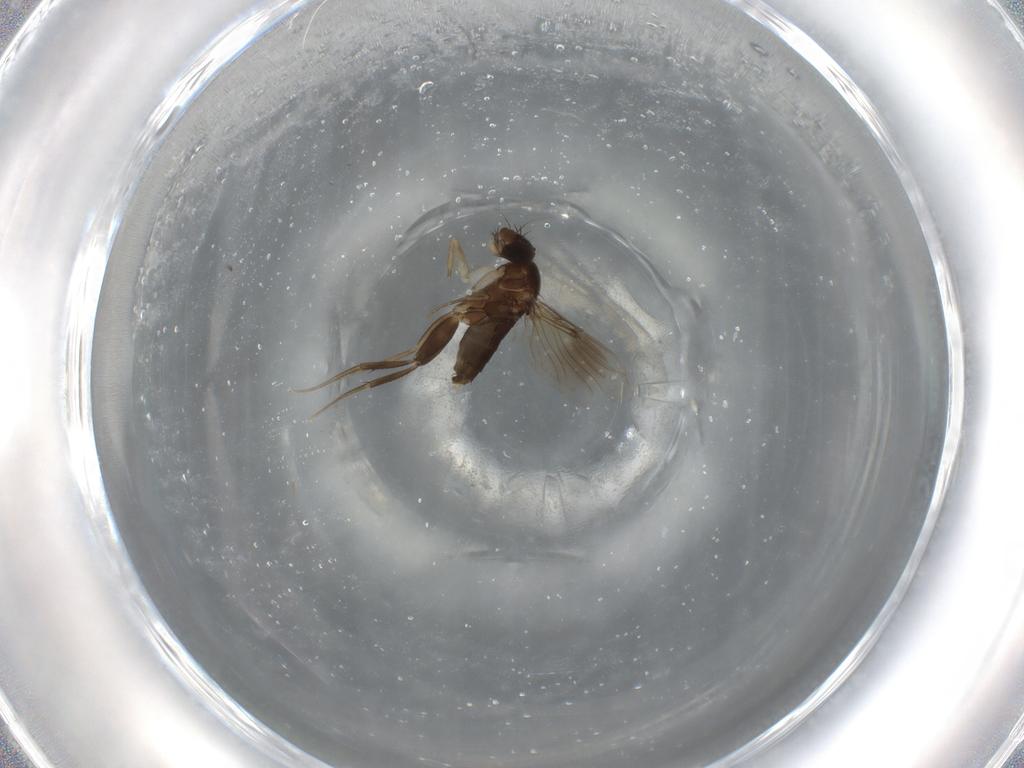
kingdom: Animalia
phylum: Arthropoda
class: Insecta
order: Diptera
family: Phoridae
